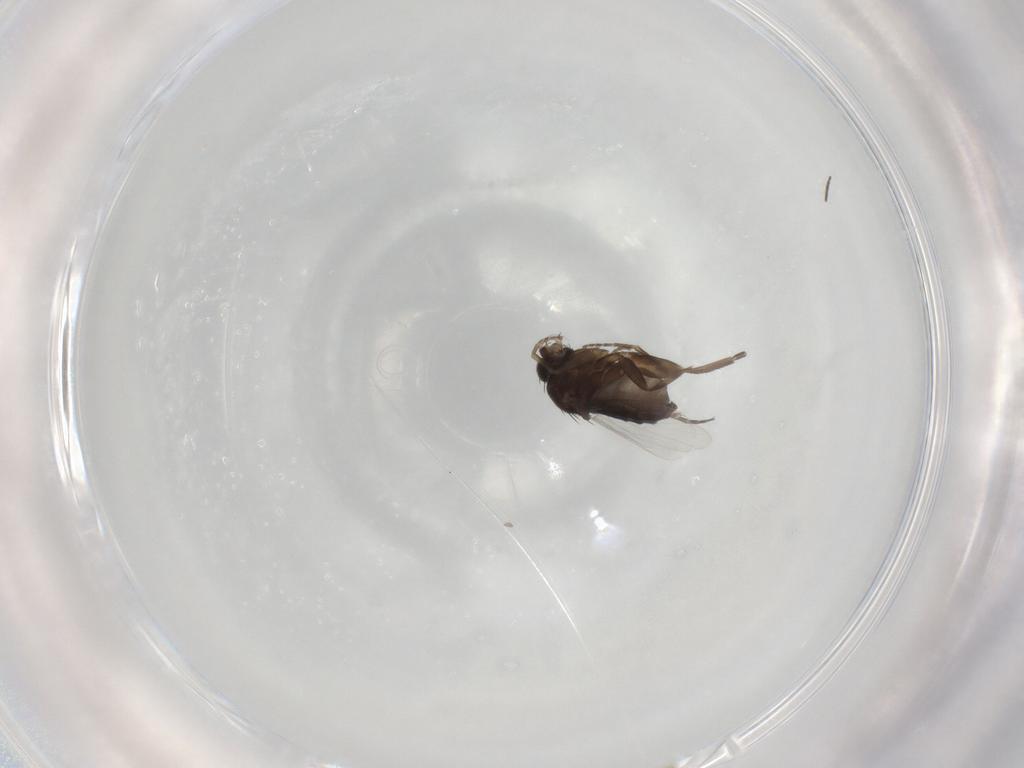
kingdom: Animalia
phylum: Arthropoda
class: Insecta
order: Diptera
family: Phoridae
